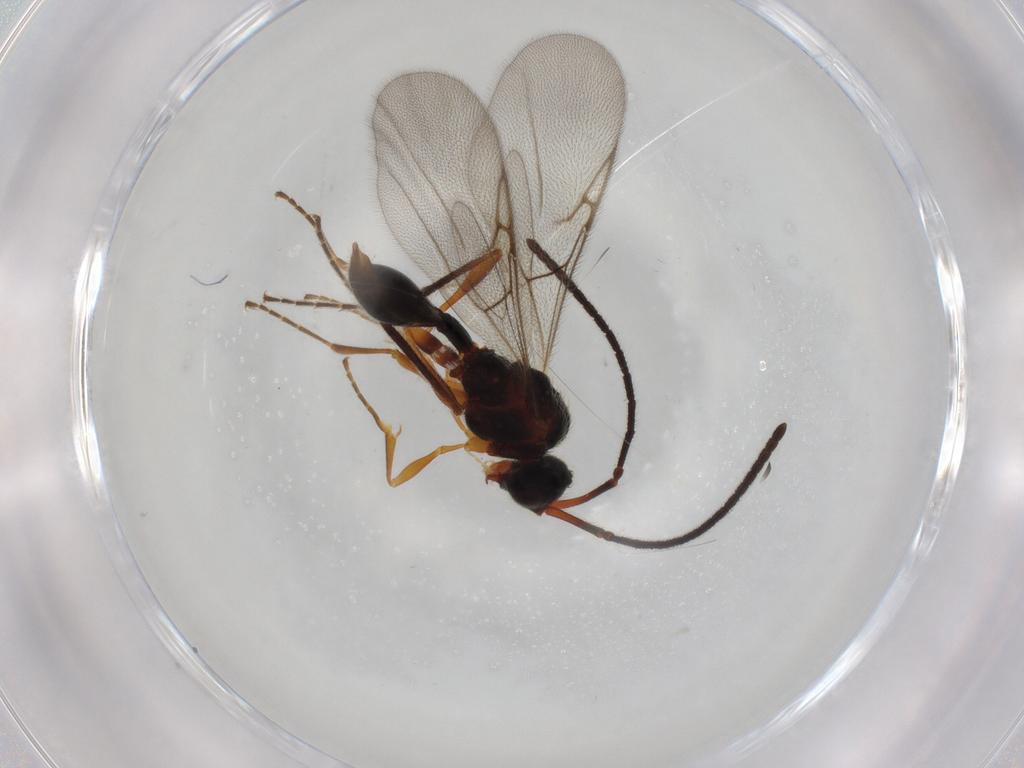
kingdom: Animalia
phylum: Arthropoda
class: Insecta
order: Hymenoptera
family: Diapriidae
